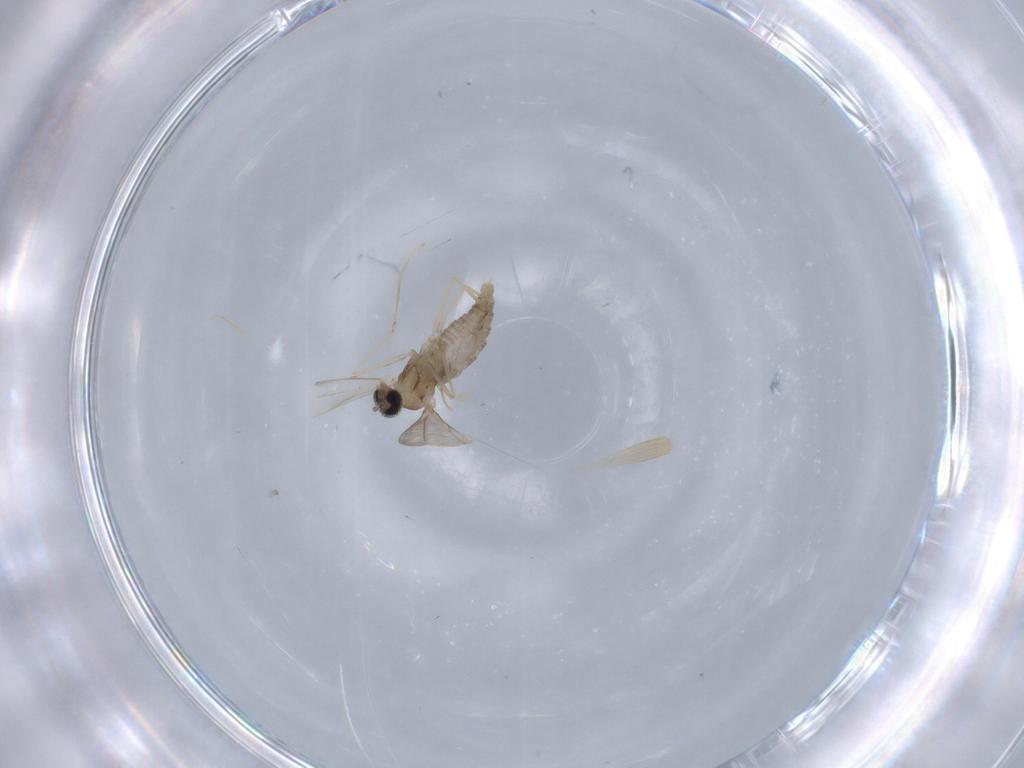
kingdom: Animalia
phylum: Arthropoda
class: Insecta
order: Diptera
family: Cecidomyiidae
